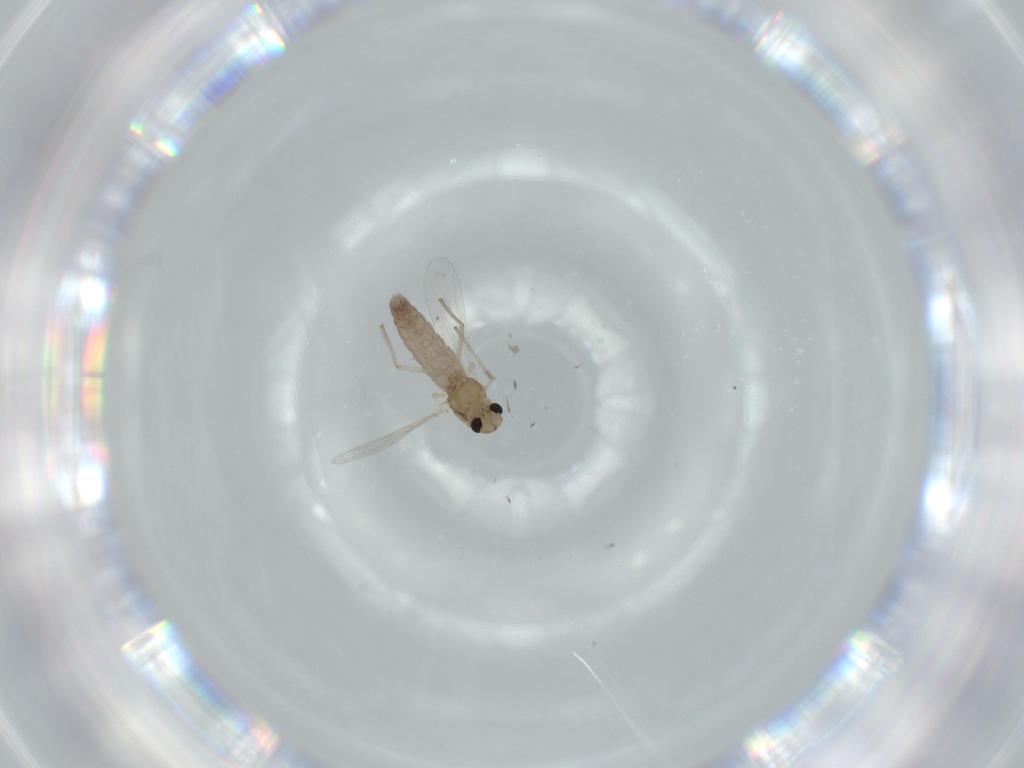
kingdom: Animalia
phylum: Arthropoda
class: Insecta
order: Diptera
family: Chironomidae
